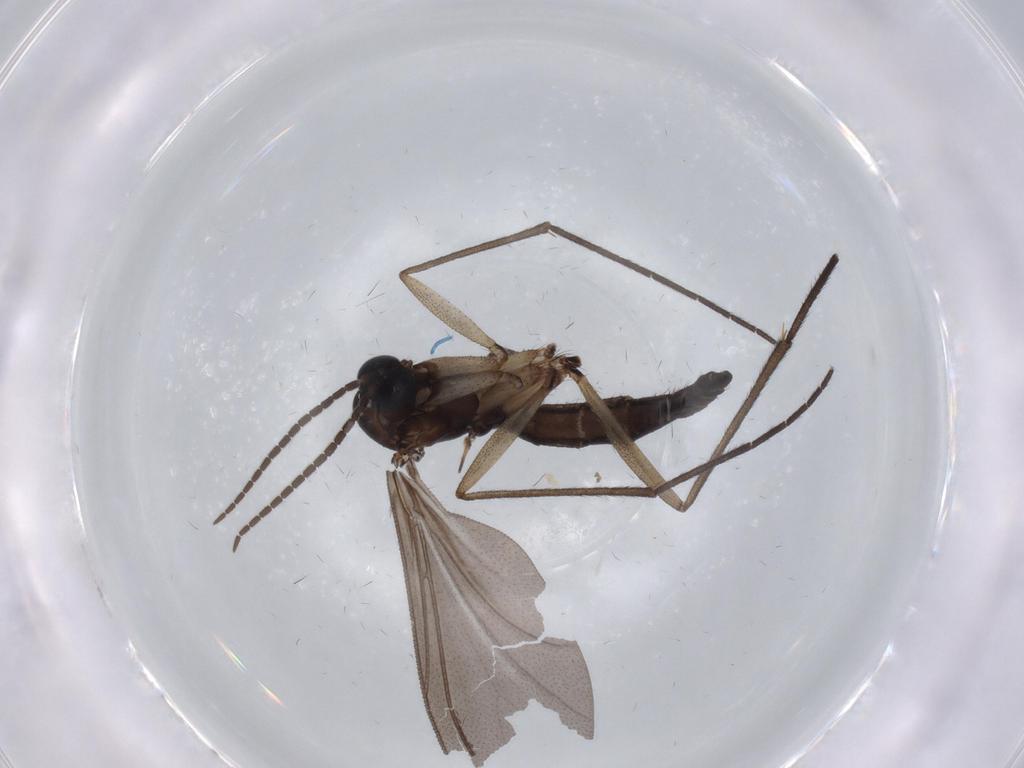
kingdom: Animalia
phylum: Arthropoda
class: Insecta
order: Diptera
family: Sciaridae
